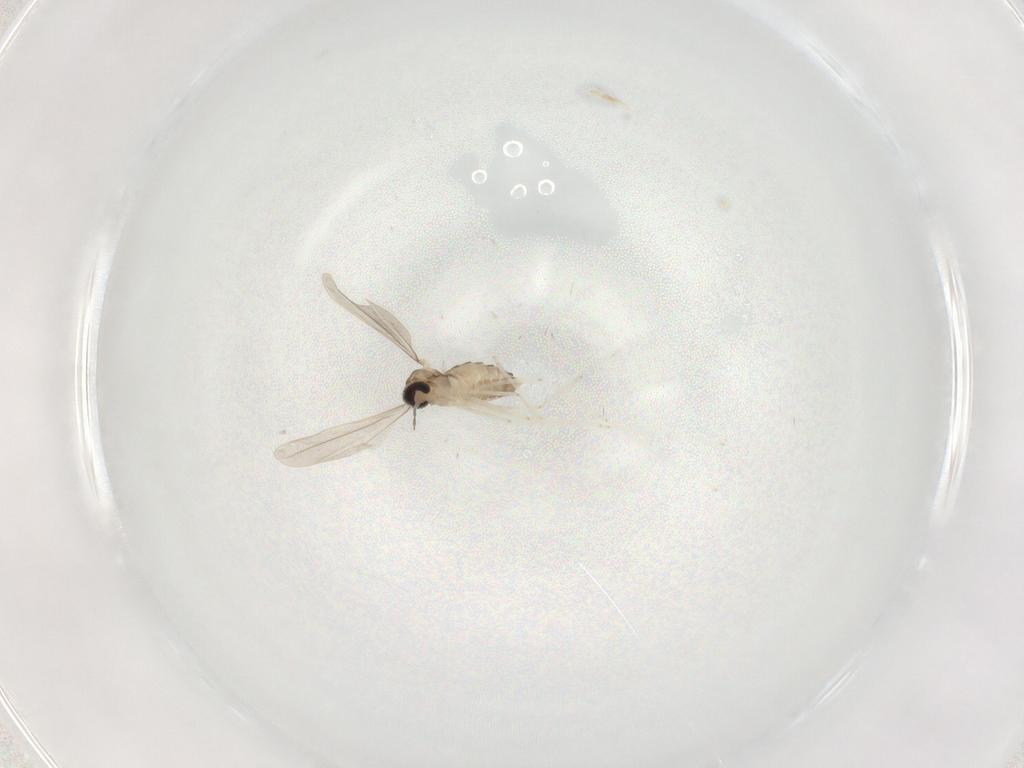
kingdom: Animalia
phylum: Arthropoda
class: Insecta
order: Diptera
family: Cecidomyiidae
